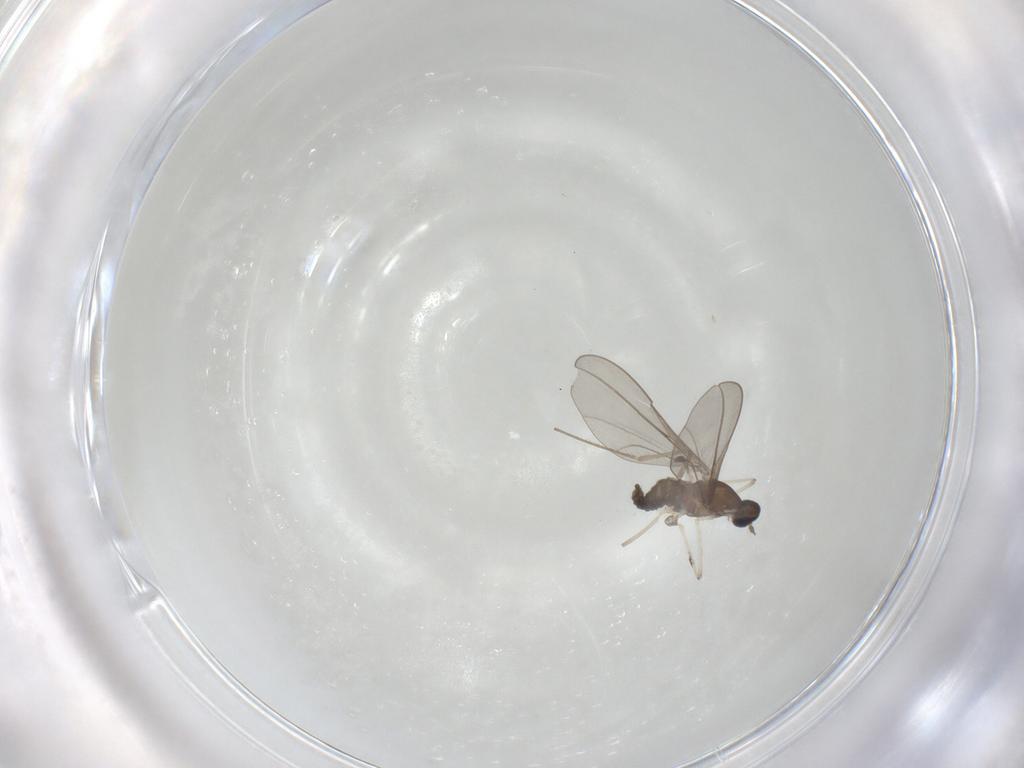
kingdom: Animalia
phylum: Arthropoda
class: Insecta
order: Diptera
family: Cecidomyiidae
